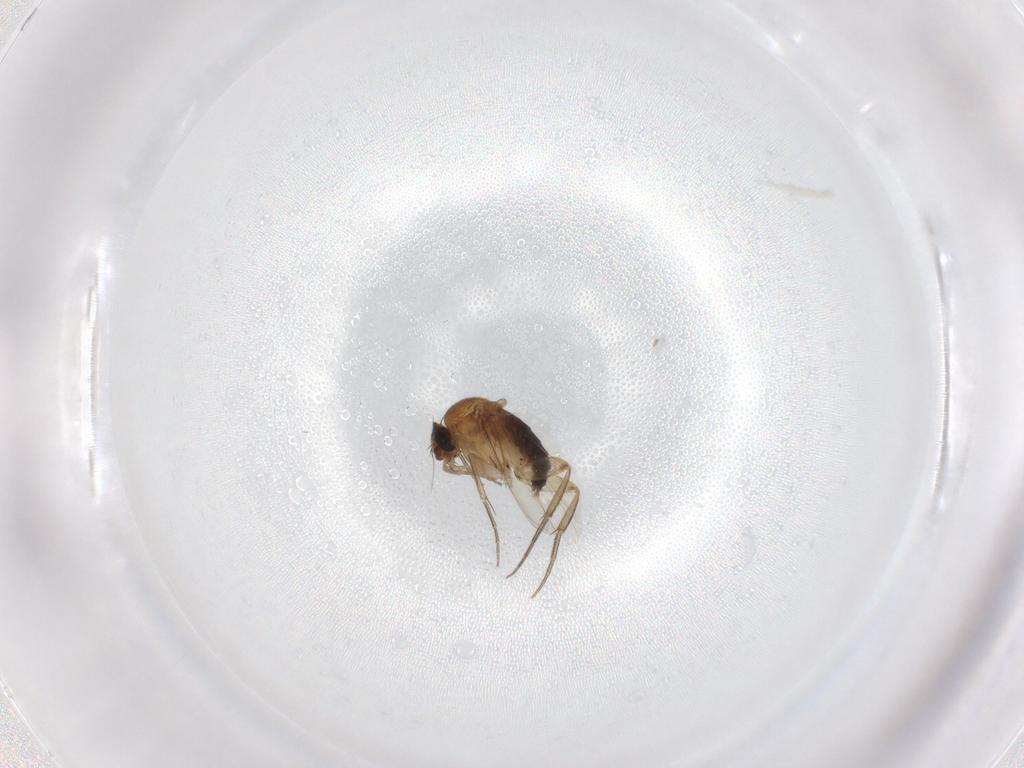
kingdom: Animalia
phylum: Arthropoda
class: Insecta
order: Diptera
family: Phoridae
